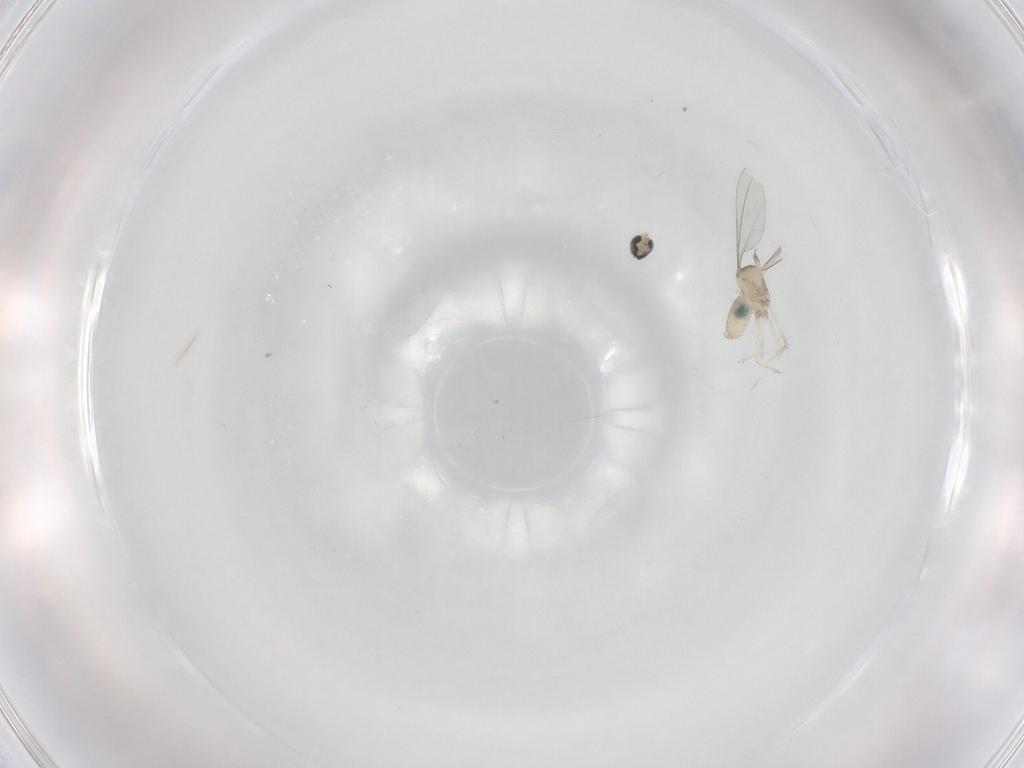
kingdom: Animalia
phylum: Arthropoda
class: Insecta
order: Diptera
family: Cecidomyiidae
